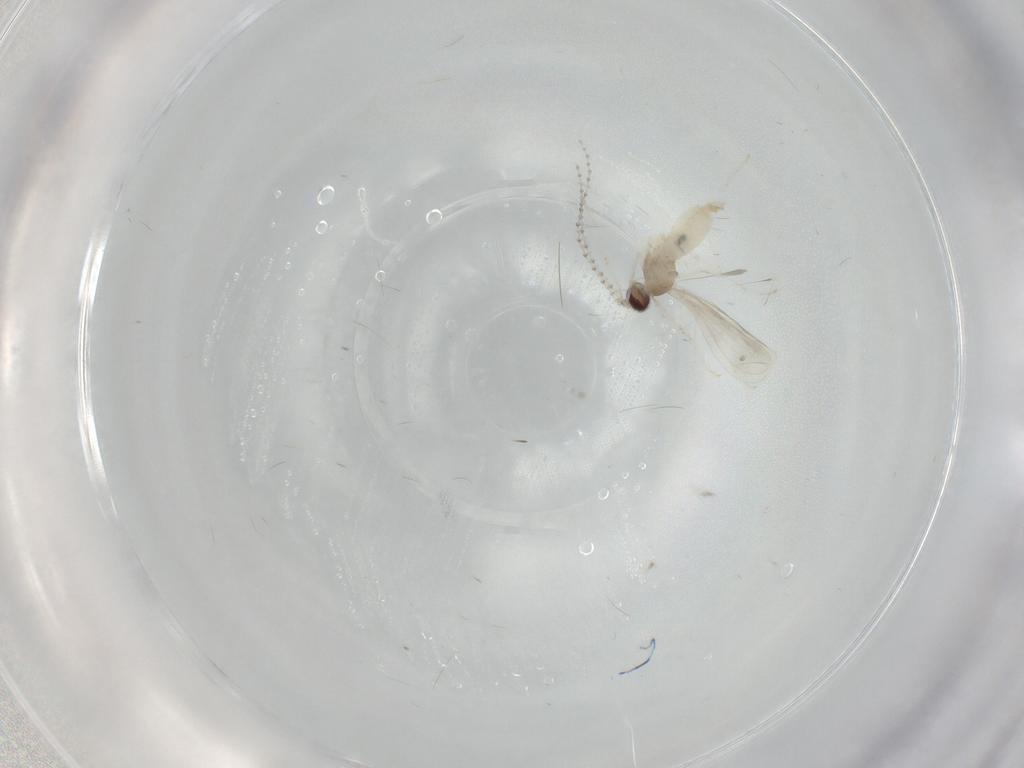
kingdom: Animalia
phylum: Arthropoda
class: Insecta
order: Diptera
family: Cecidomyiidae
